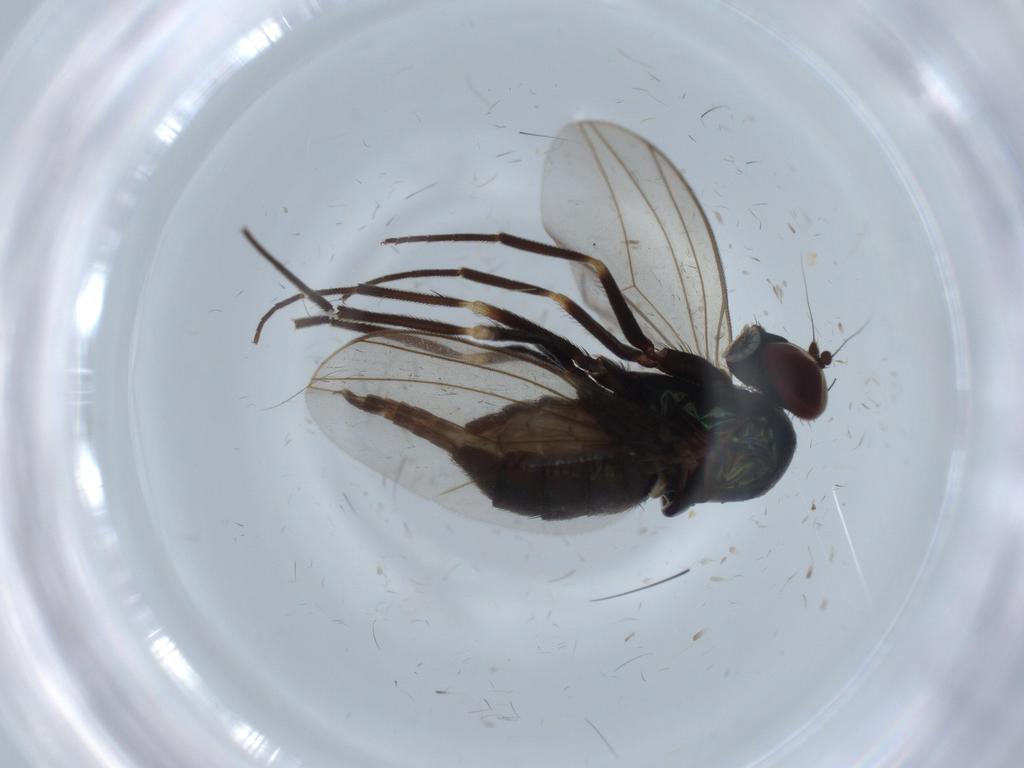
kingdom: Animalia
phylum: Arthropoda
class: Insecta
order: Diptera
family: Dolichopodidae
